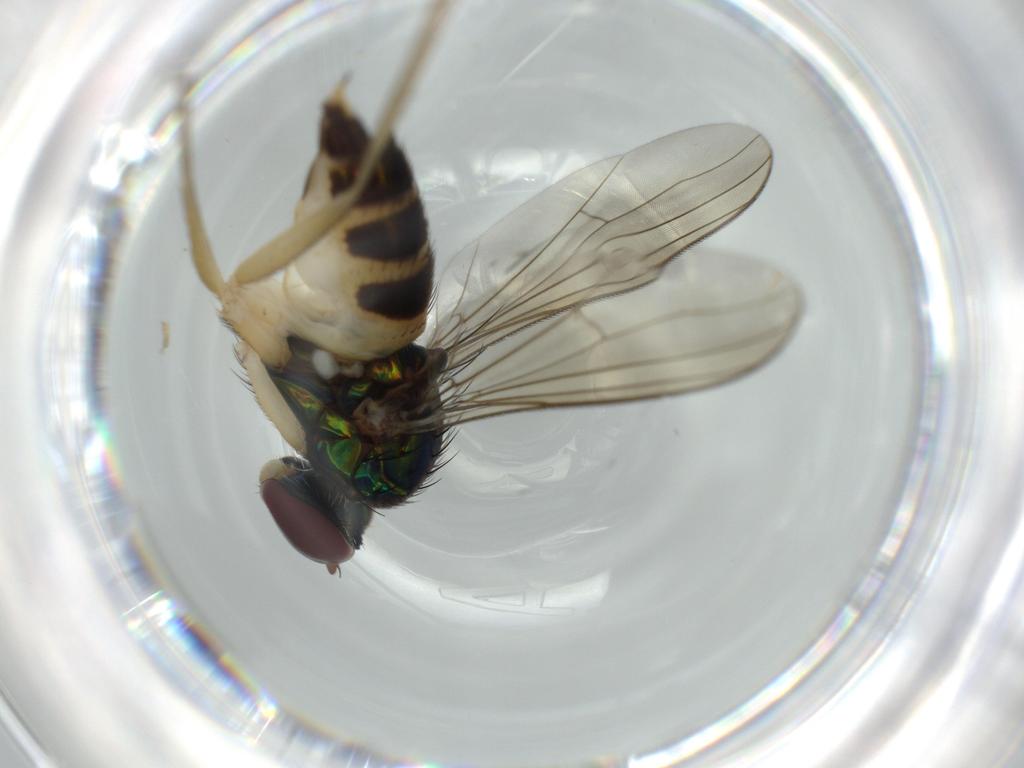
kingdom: Animalia
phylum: Arthropoda
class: Insecta
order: Diptera
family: Dolichopodidae
